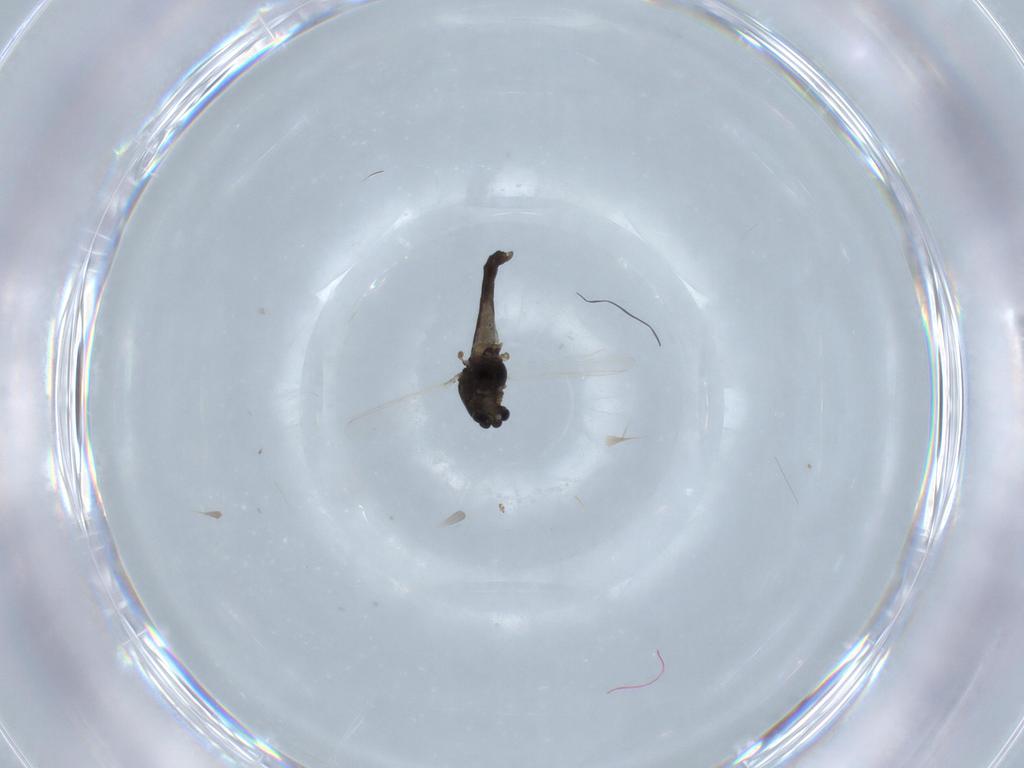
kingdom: Animalia
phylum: Arthropoda
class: Insecta
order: Diptera
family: Chironomidae
